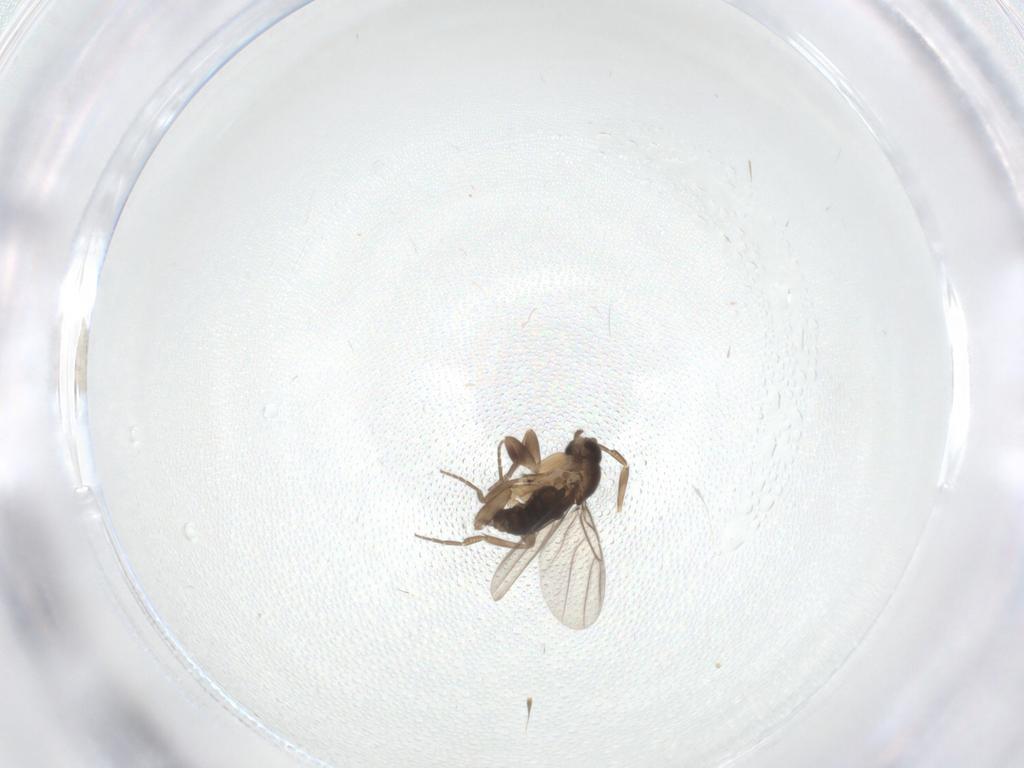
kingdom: Animalia
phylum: Arthropoda
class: Insecta
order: Diptera
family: Phoridae
